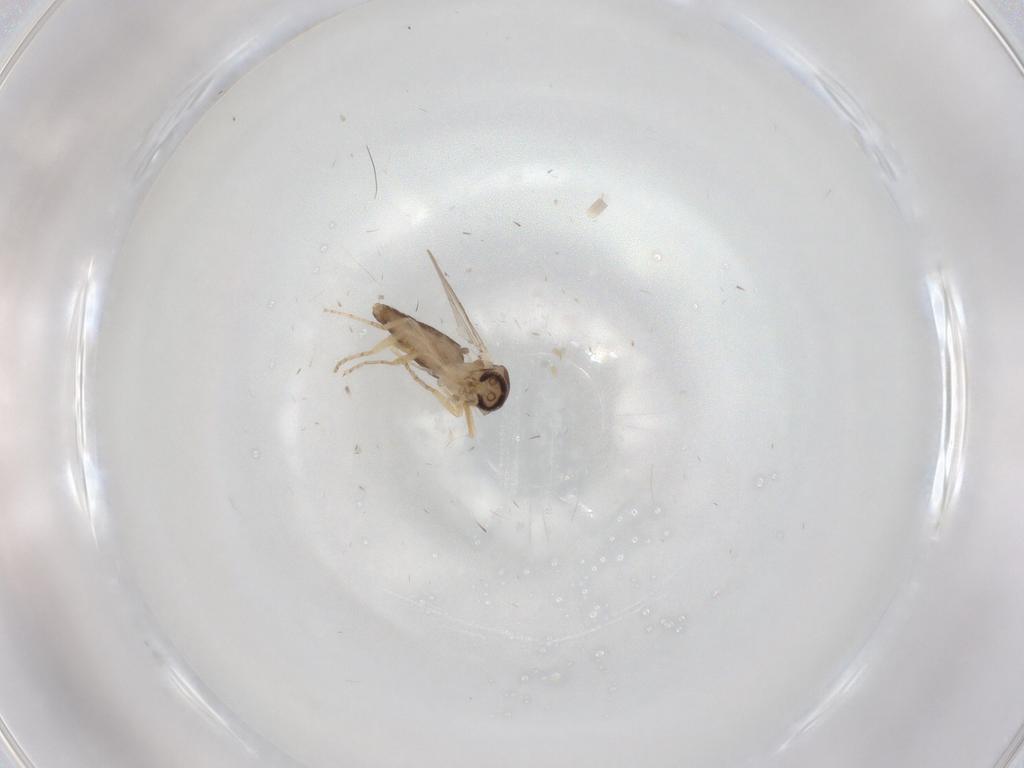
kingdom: Animalia
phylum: Arthropoda
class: Insecta
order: Diptera
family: Ceratopogonidae
